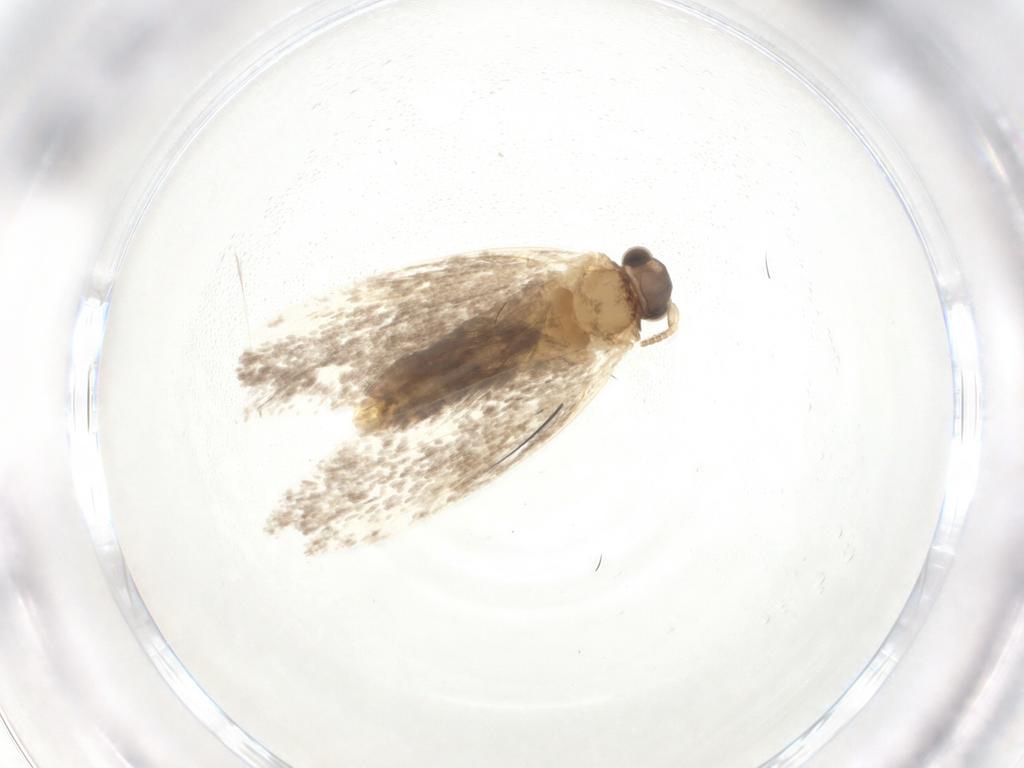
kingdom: Animalia
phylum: Arthropoda
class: Insecta
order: Lepidoptera
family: Dryadaulidae
